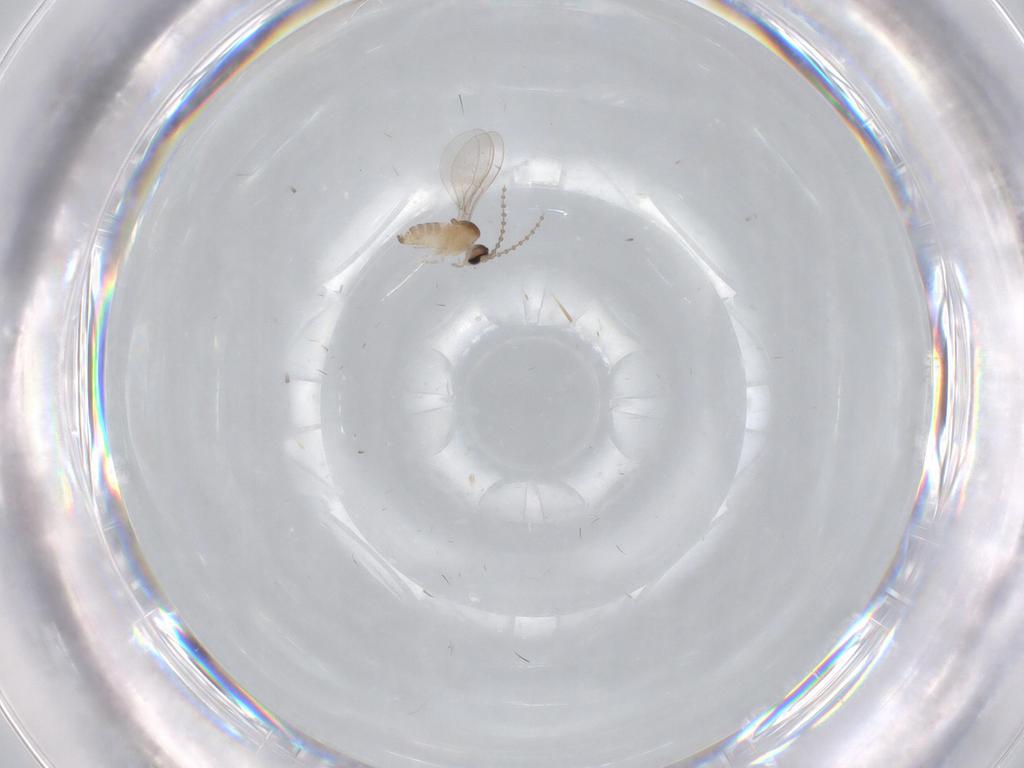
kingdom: Animalia
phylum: Arthropoda
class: Insecta
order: Diptera
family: Cecidomyiidae
